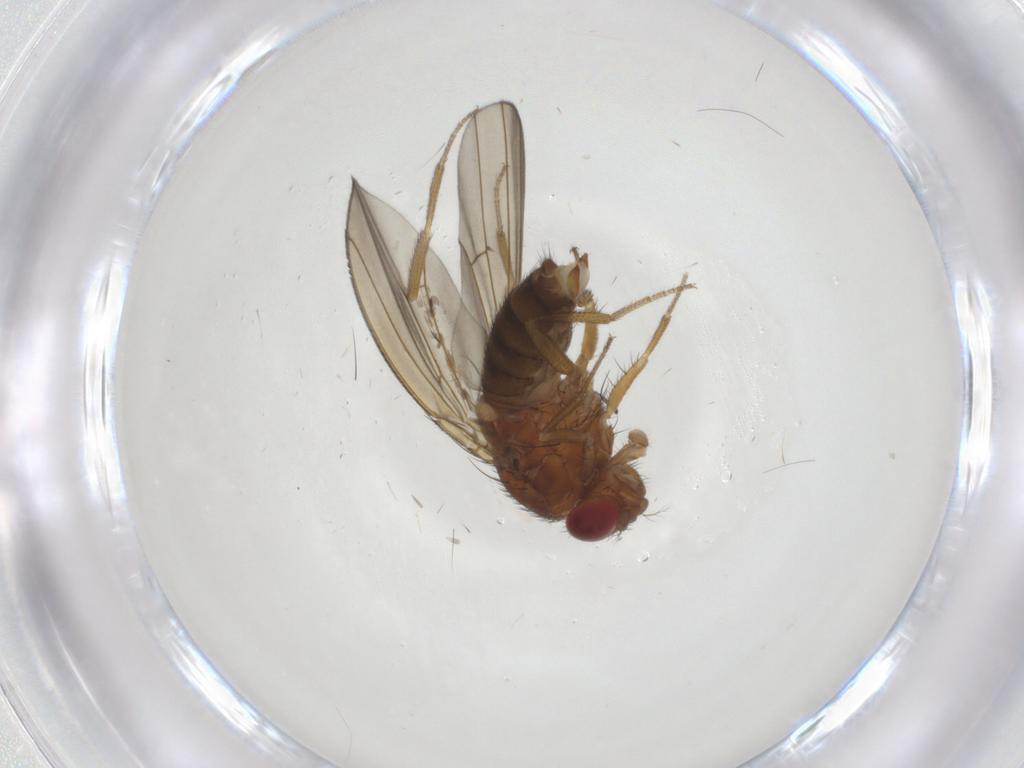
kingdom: Animalia
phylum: Arthropoda
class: Insecta
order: Diptera
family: Drosophilidae
